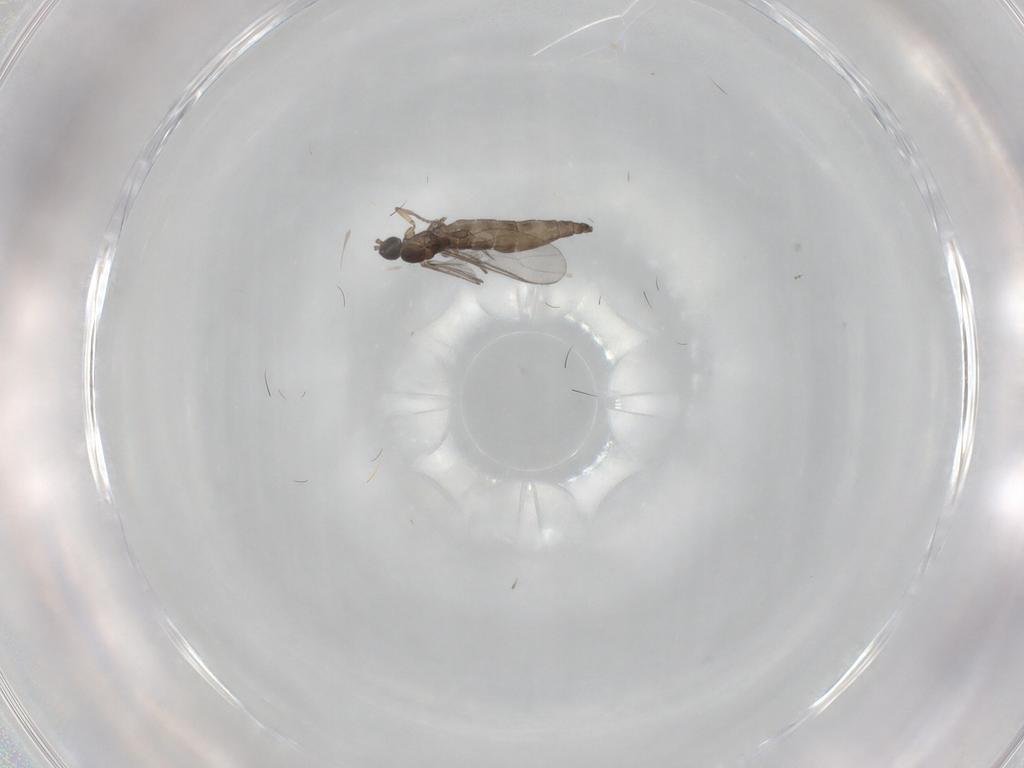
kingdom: Animalia
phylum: Arthropoda
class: Insecta
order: Diptera
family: Sciaridae
